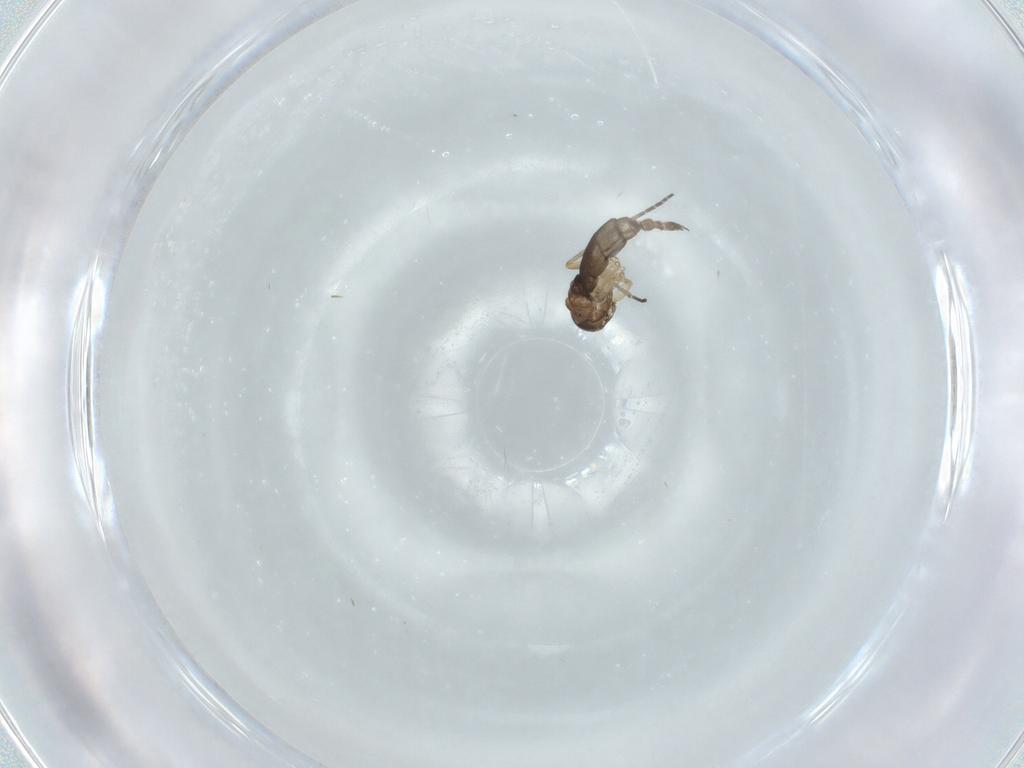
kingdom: Animalia
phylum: Arthropoda
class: Insecta
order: Diptera
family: Sciaridae
